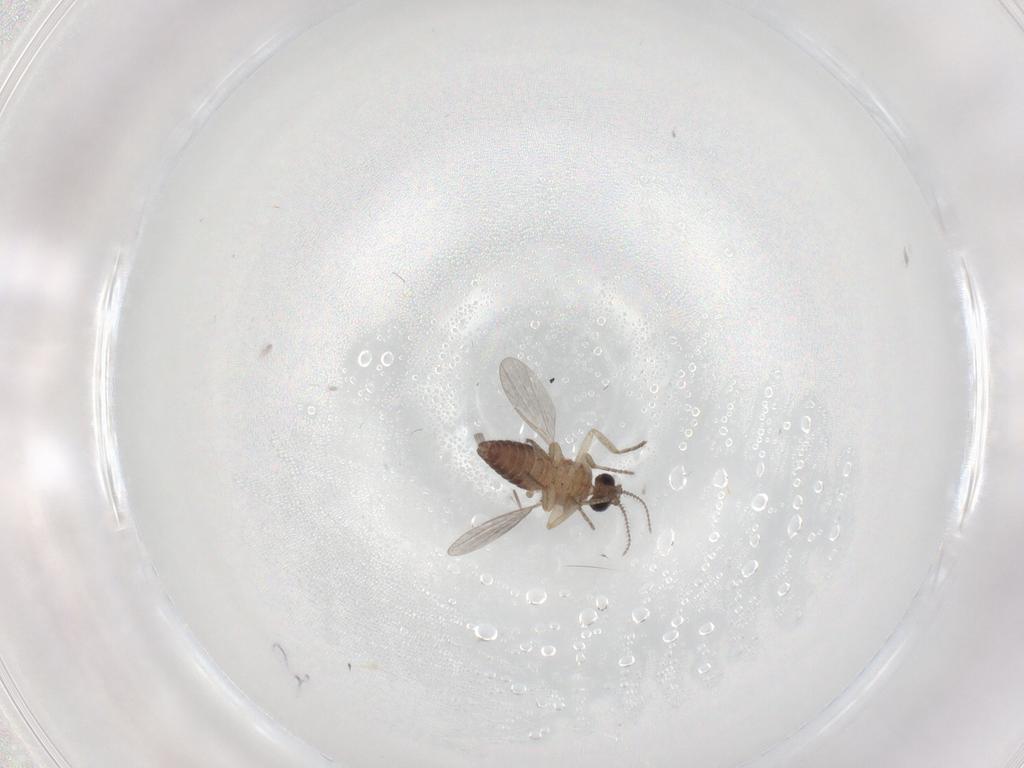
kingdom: Animalia
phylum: Arthropoda
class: Insecta
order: Diptera
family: Ceratopogonidae
